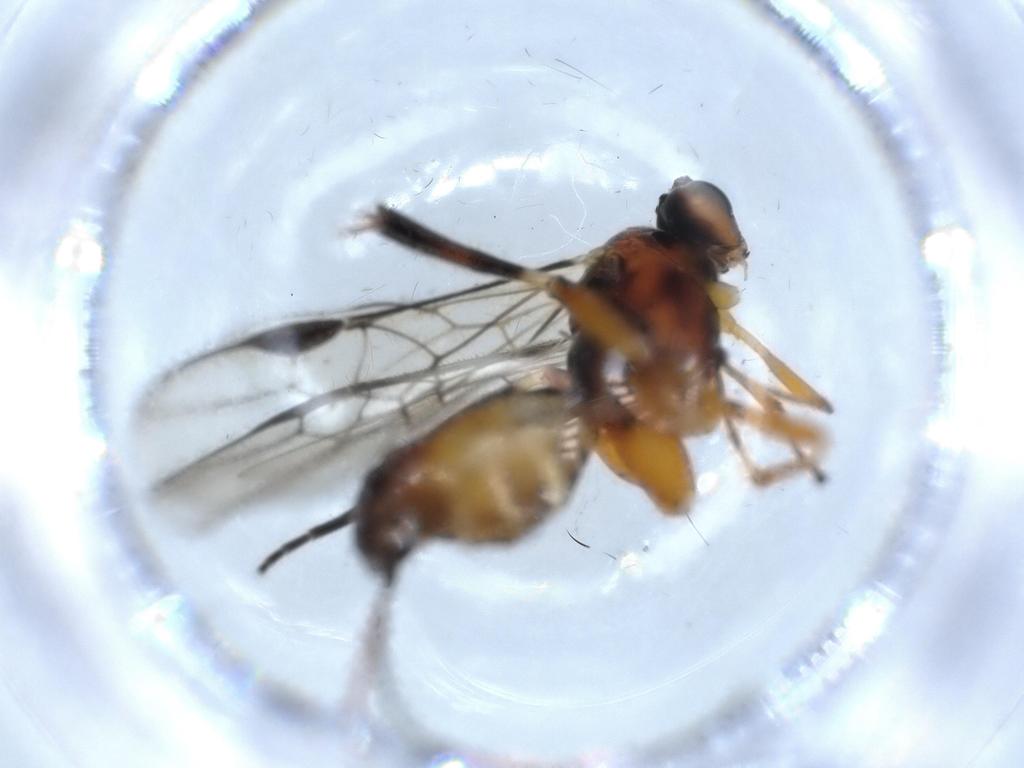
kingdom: Animalia
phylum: Arthropoda
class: Insecta
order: Hymenoptera
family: Braconidae
